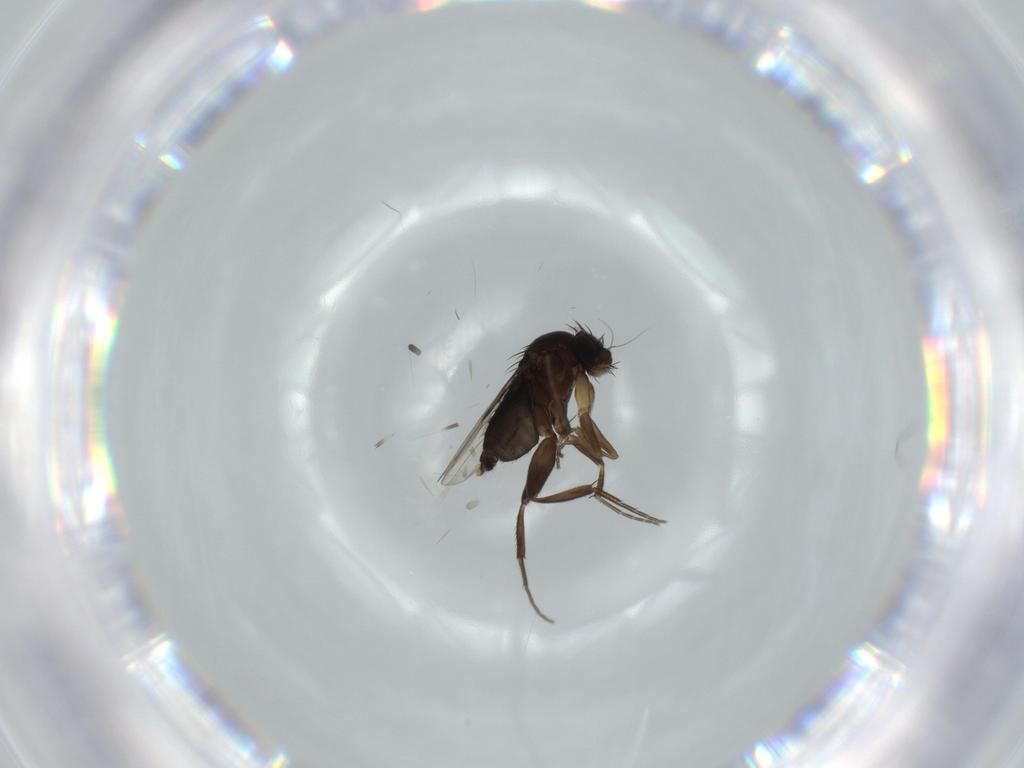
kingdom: Animalia
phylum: Arthropoda
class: Insecta
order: Diptera
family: Phoridae
